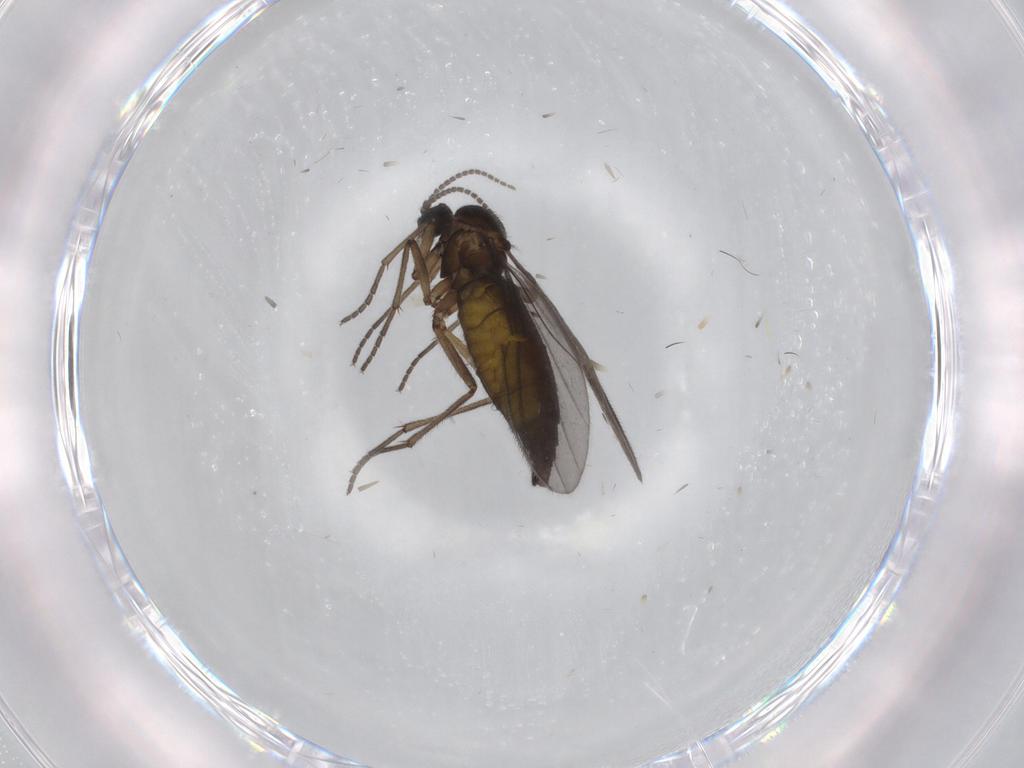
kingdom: Animalia
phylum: Arthropoda
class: Insecta
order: Diptera
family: Sciaridae
